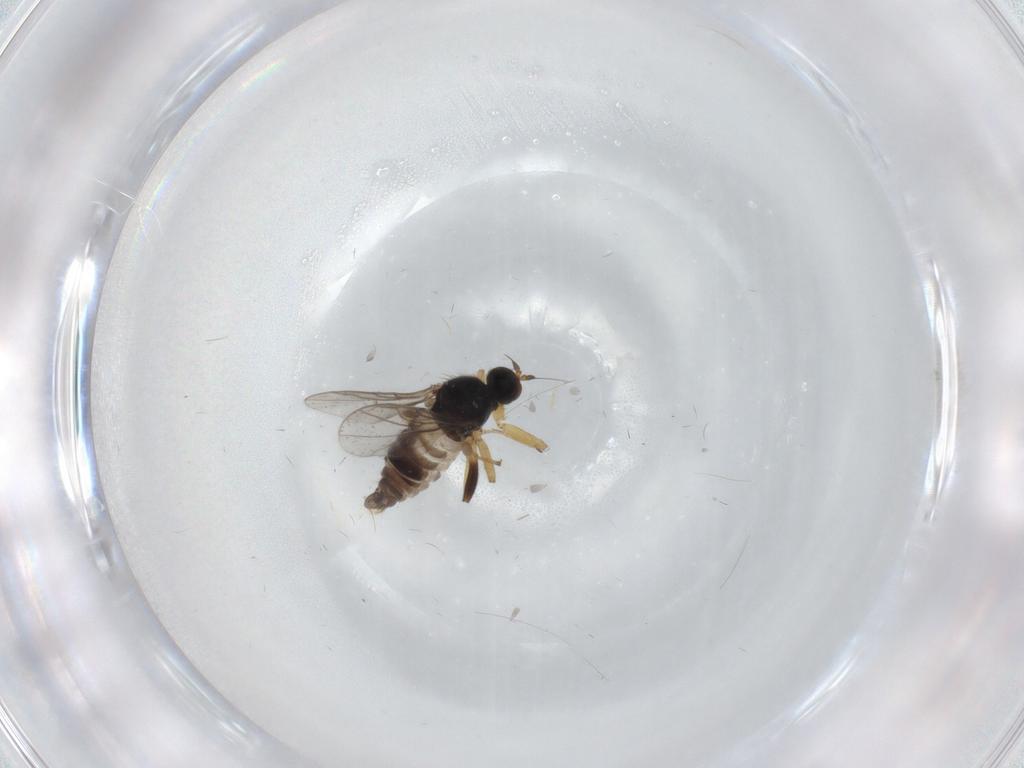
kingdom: Animalia
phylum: Arthropoda
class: Insecta
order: Diptera
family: Cecidomyiidae
